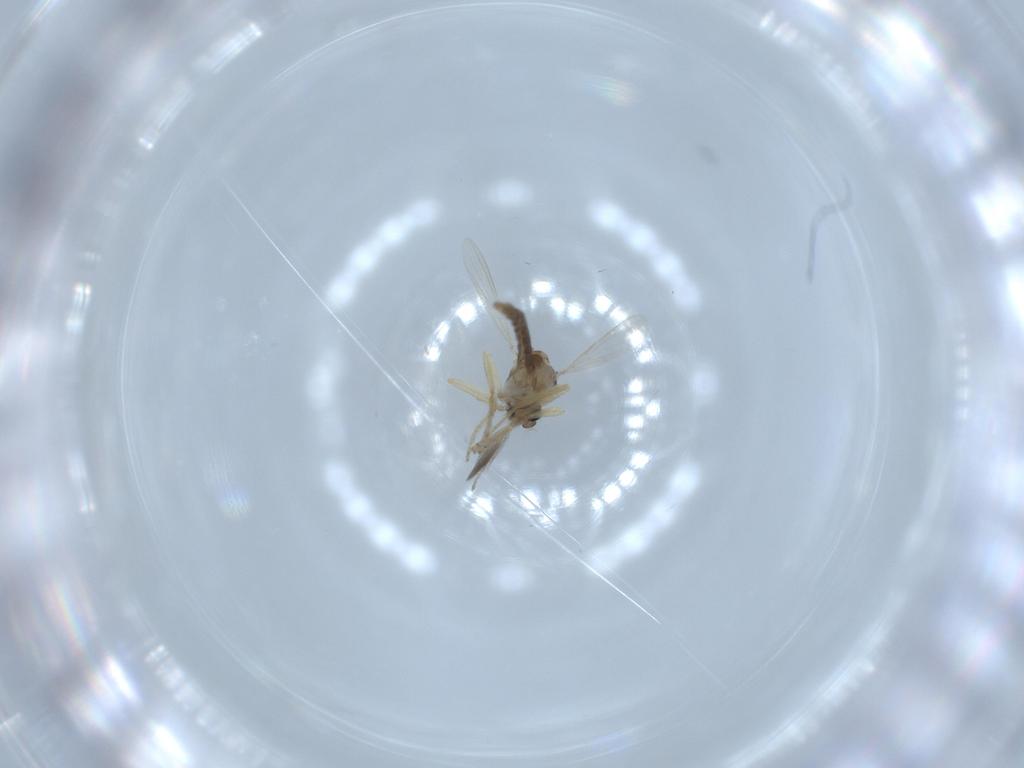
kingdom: Animalia
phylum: Arthropoda
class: Insecta
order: Diptera
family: Ceratopogonidae
